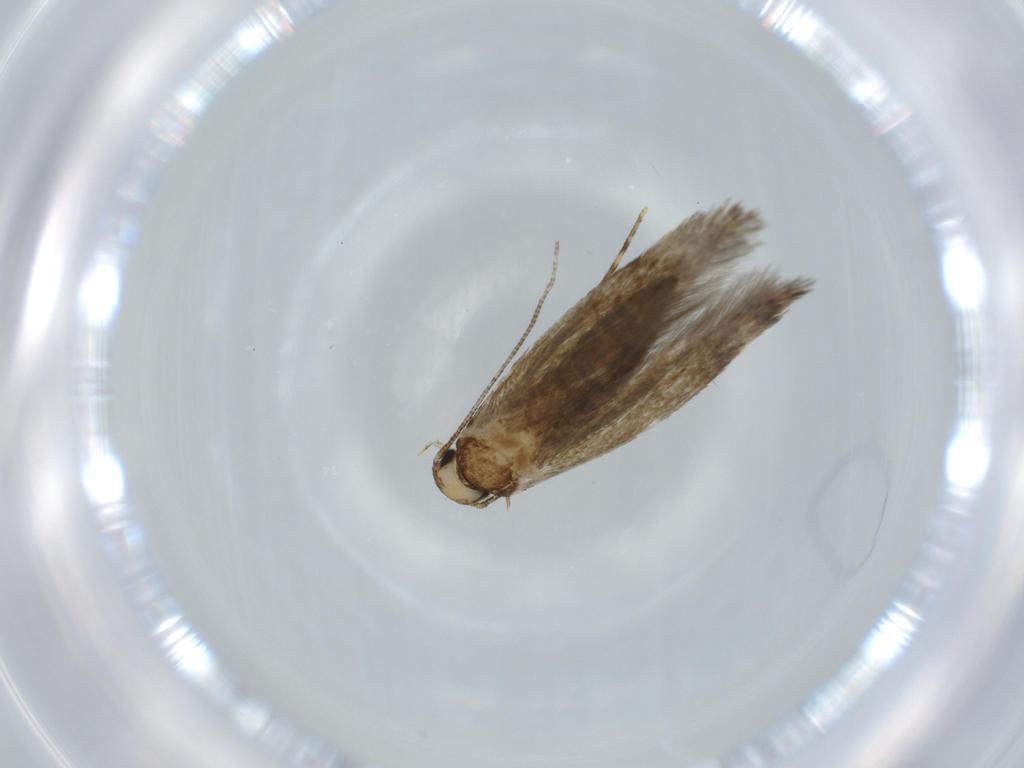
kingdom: Animalia
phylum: Arthropoda
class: Insecta
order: Lepidoptera
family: Tineidae
